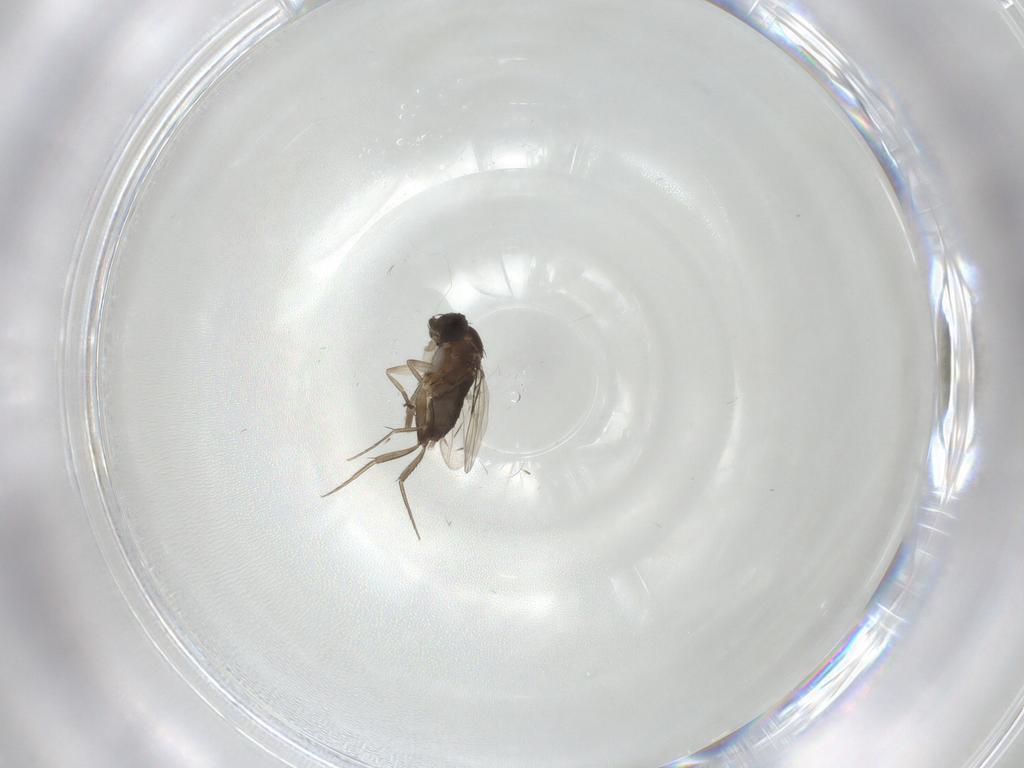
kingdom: Animalia
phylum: Arthropoda
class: Insecta
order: Diptera
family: Phoridae
